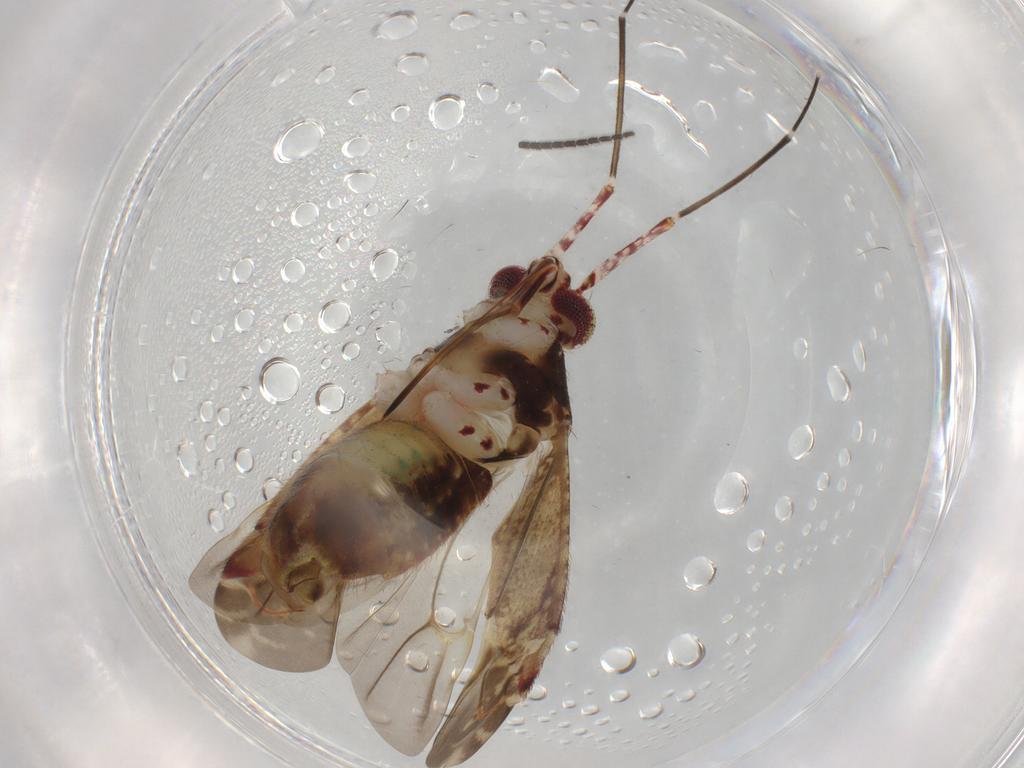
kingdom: Animalia
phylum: Arthropoda
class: Insecta
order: Hemiptera
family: Miridae
